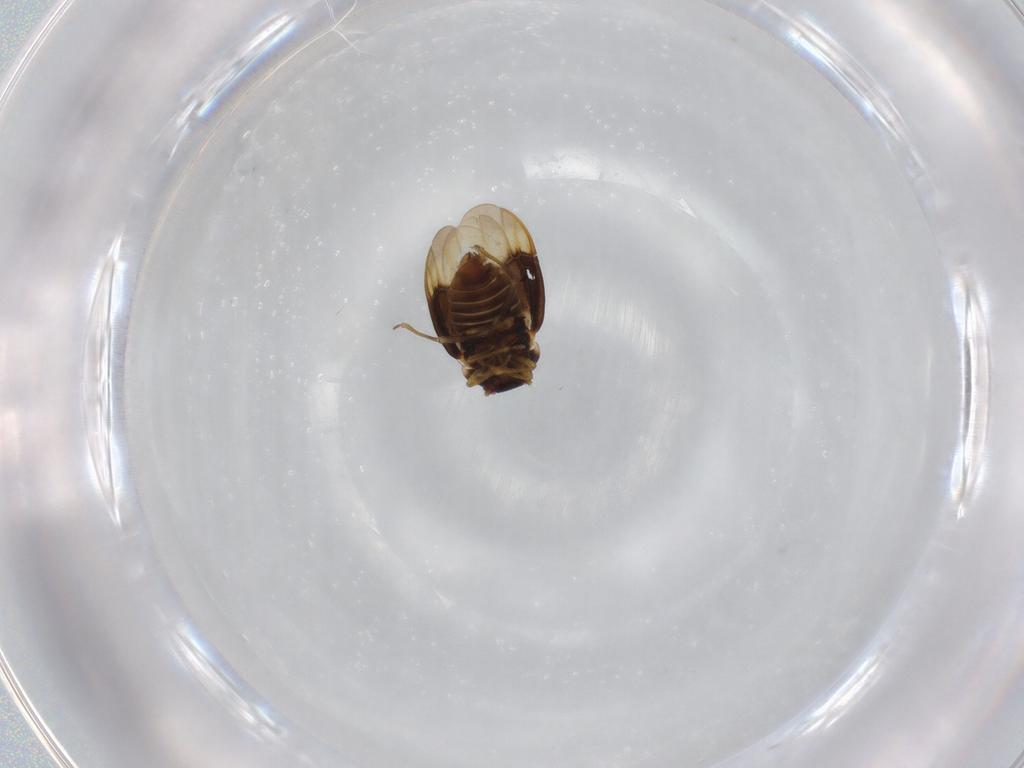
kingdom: Animalia
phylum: Arthropoda
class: Insecta
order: Hemiptera
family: Schizopteridae
